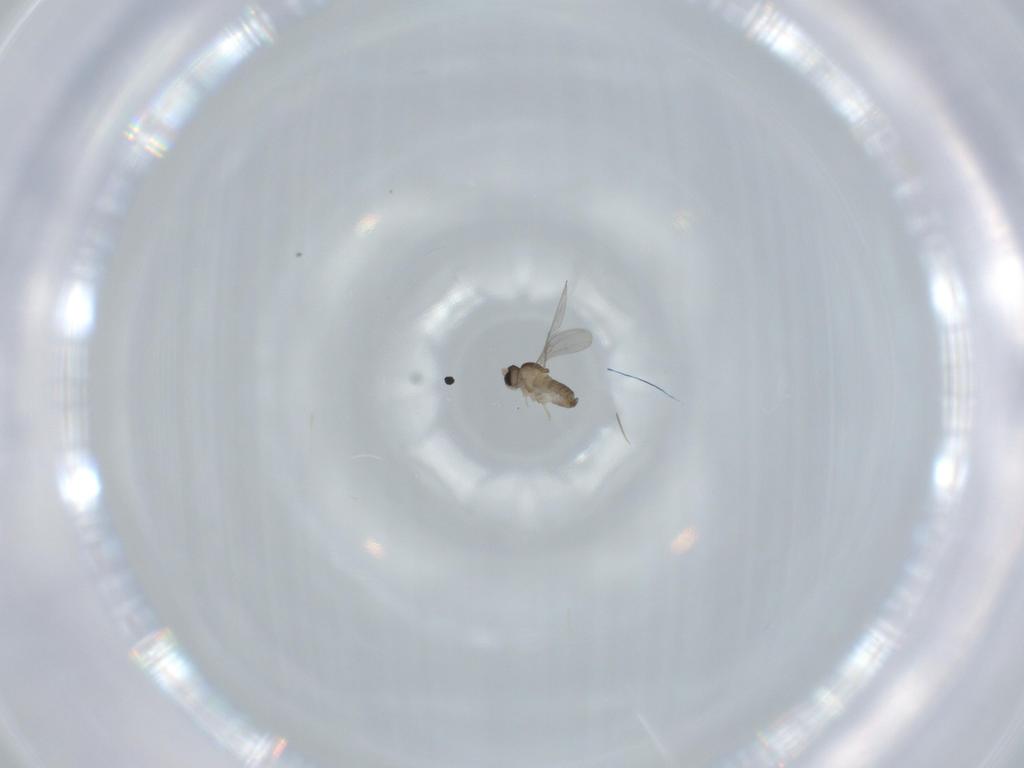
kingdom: Animalia
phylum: Arthropoda
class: Insecta
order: Diptera
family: Cecidomyiidae
